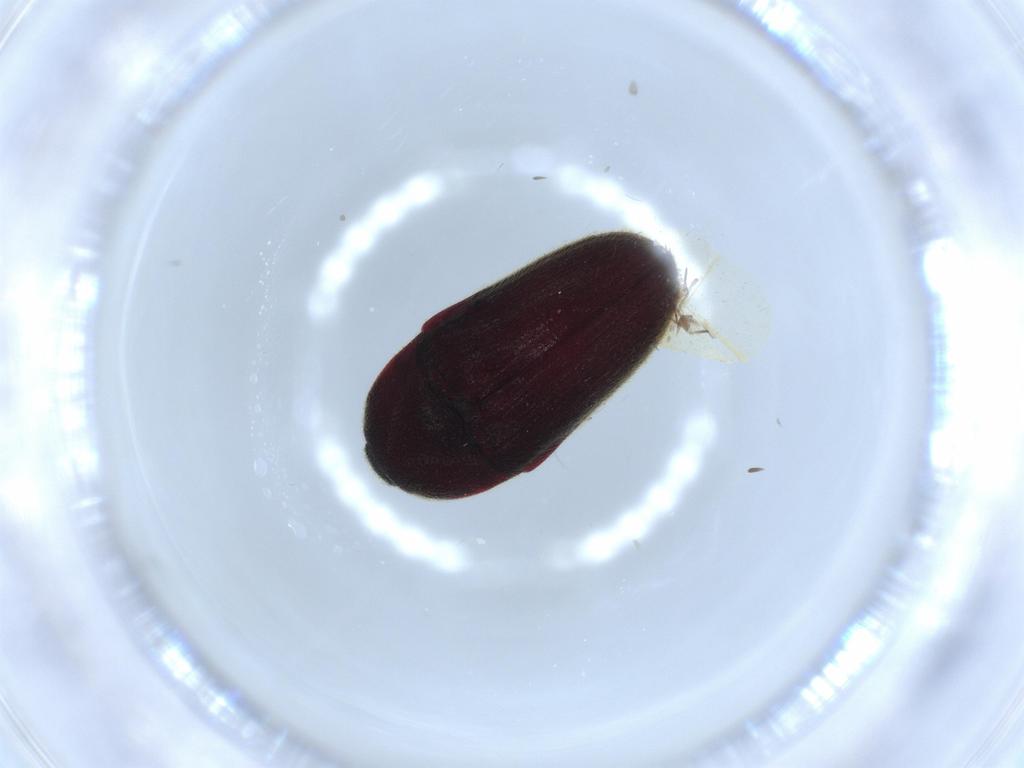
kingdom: Animalia
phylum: Arthropoda
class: Insecta
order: Coleoptera
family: Throscidae
